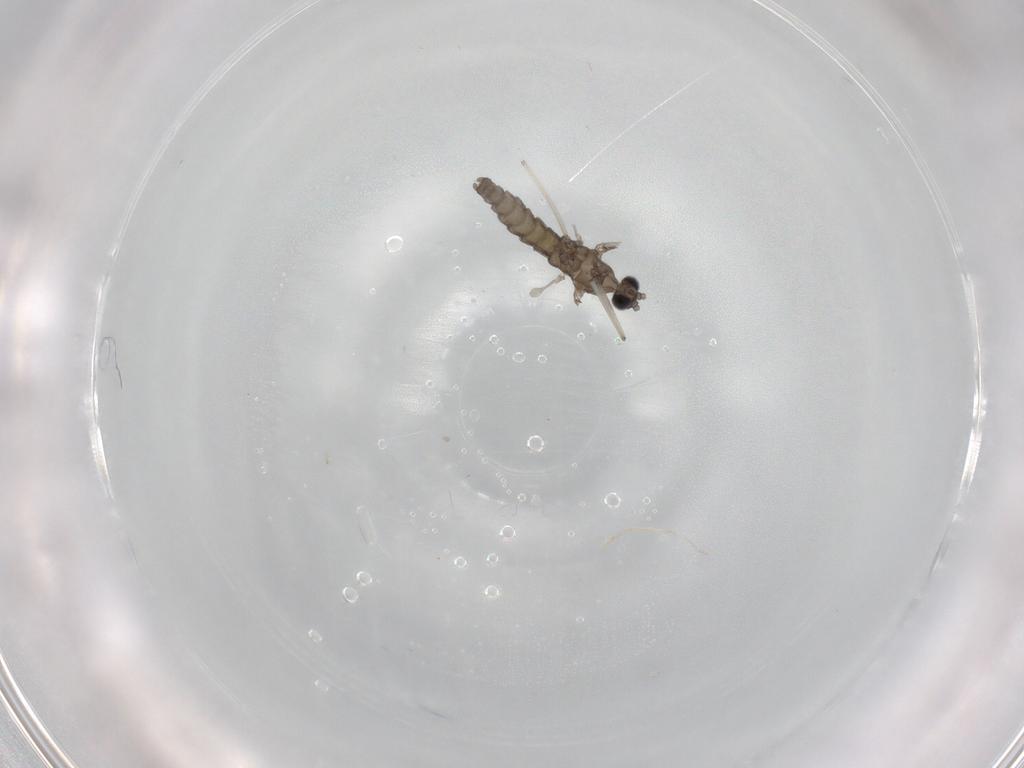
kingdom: Animalia
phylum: Arthropoda
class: Insecta
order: Diptera
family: Cecidomyiidae
